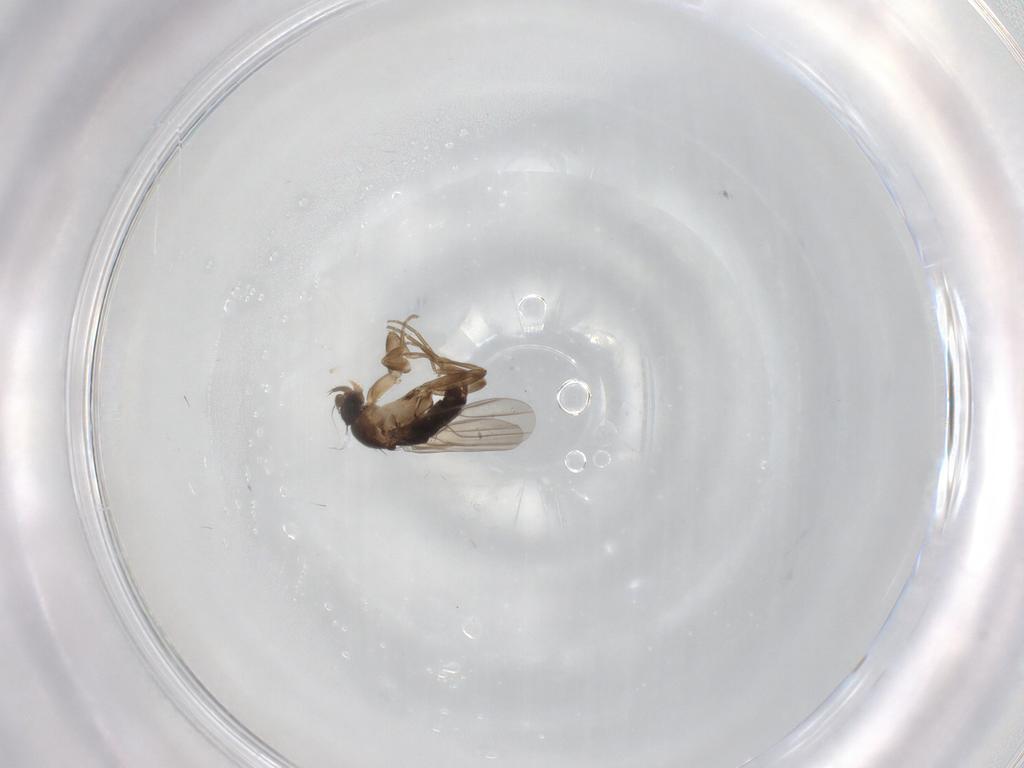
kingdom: Animalia
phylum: Arthropoda
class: Insecta
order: Diptera
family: Phoridae
